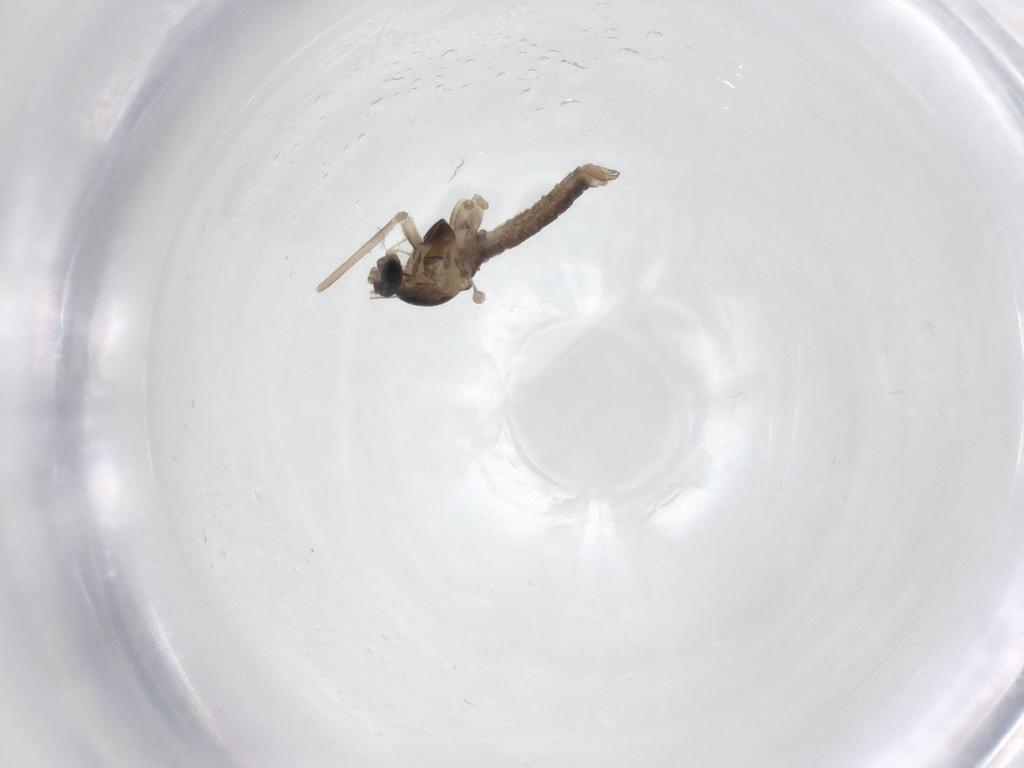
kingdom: Animalia
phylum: Arthropoda
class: Insecta
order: Diptera
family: Cecidomyiidae
